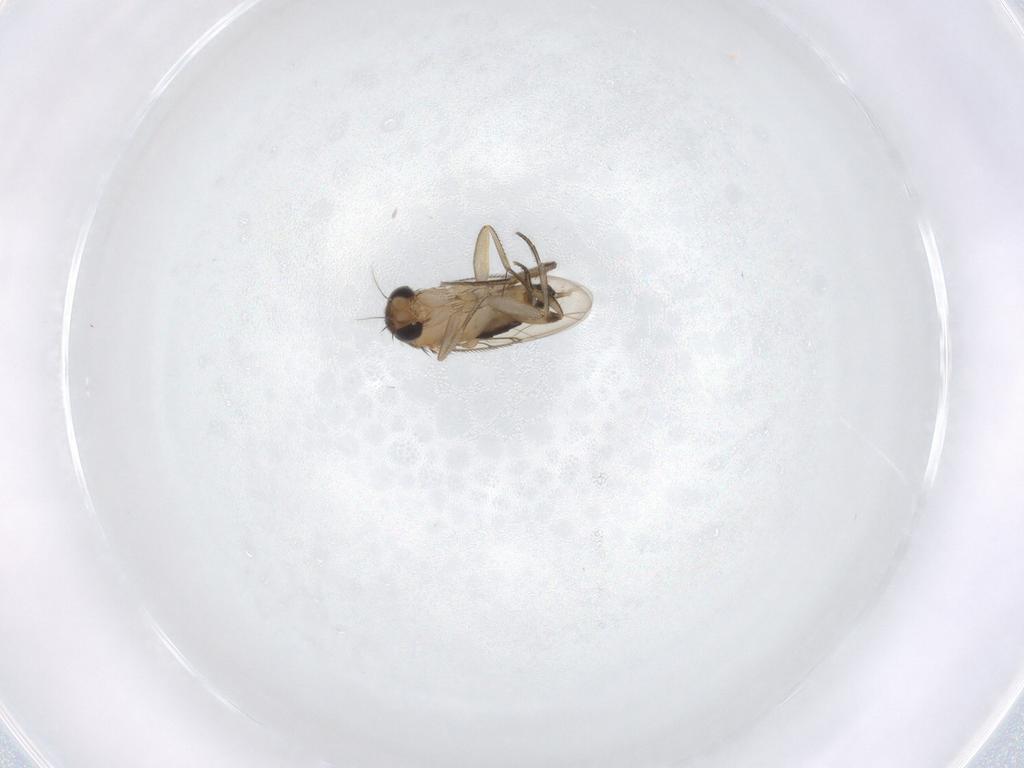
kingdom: Animalia
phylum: Arthropoda
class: Insecta
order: Diptera
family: Phoridae
